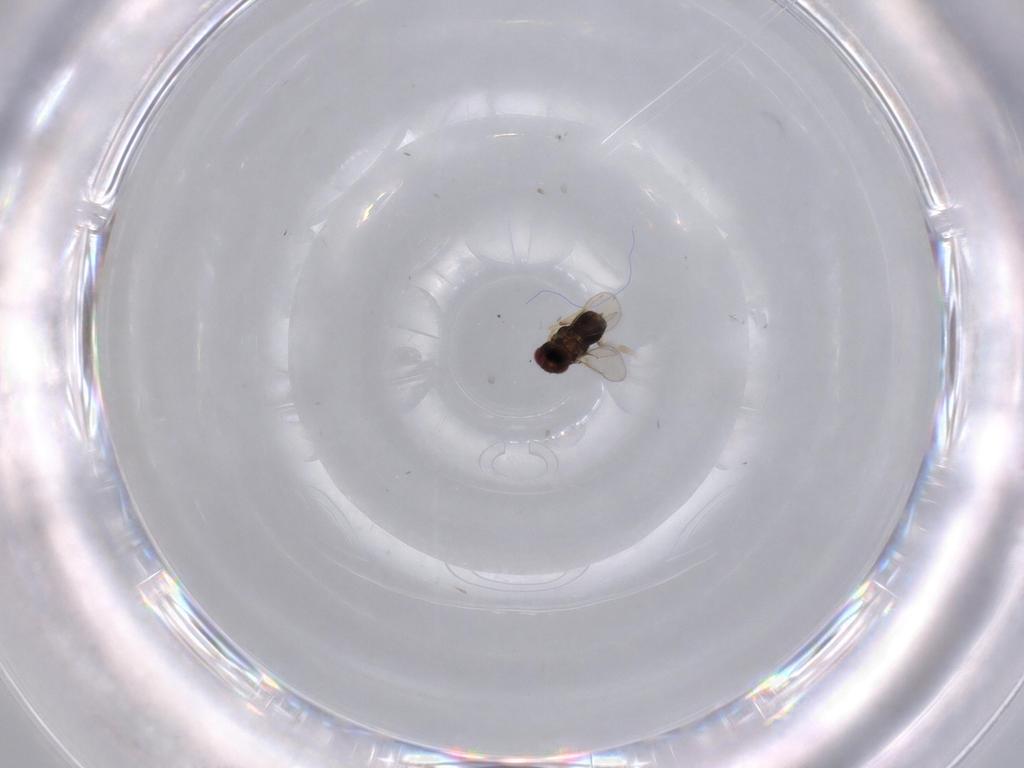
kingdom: Animalia
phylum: Arthropoda
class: Insecta
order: Hymenoptera
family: Aphelinidae
